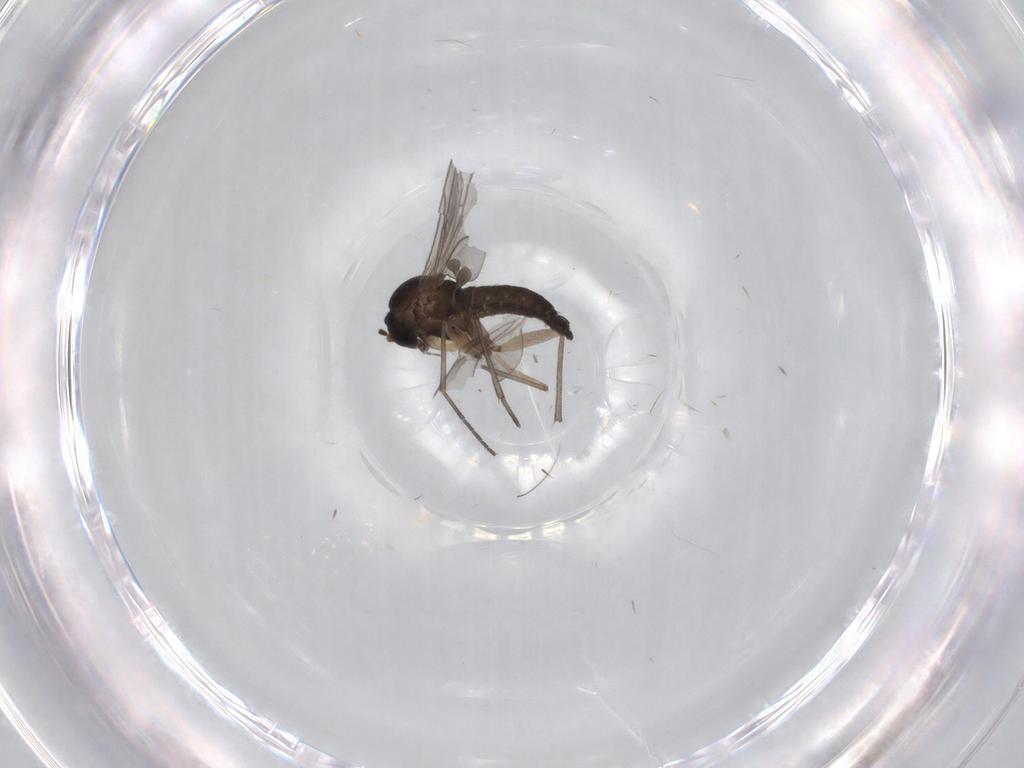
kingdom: Animalia
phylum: Arthropoda
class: Insecta
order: Diptera
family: Sciaridae
